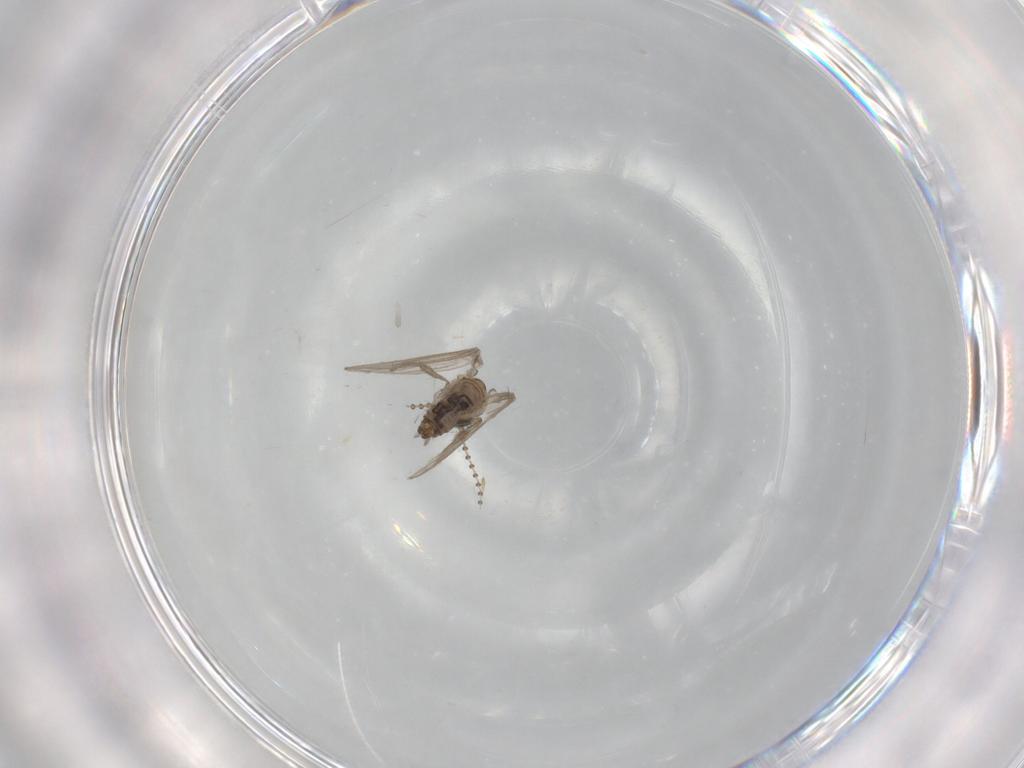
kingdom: Animalia
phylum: Arthropoda
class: Insecta
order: Diptera
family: Psychodidae
